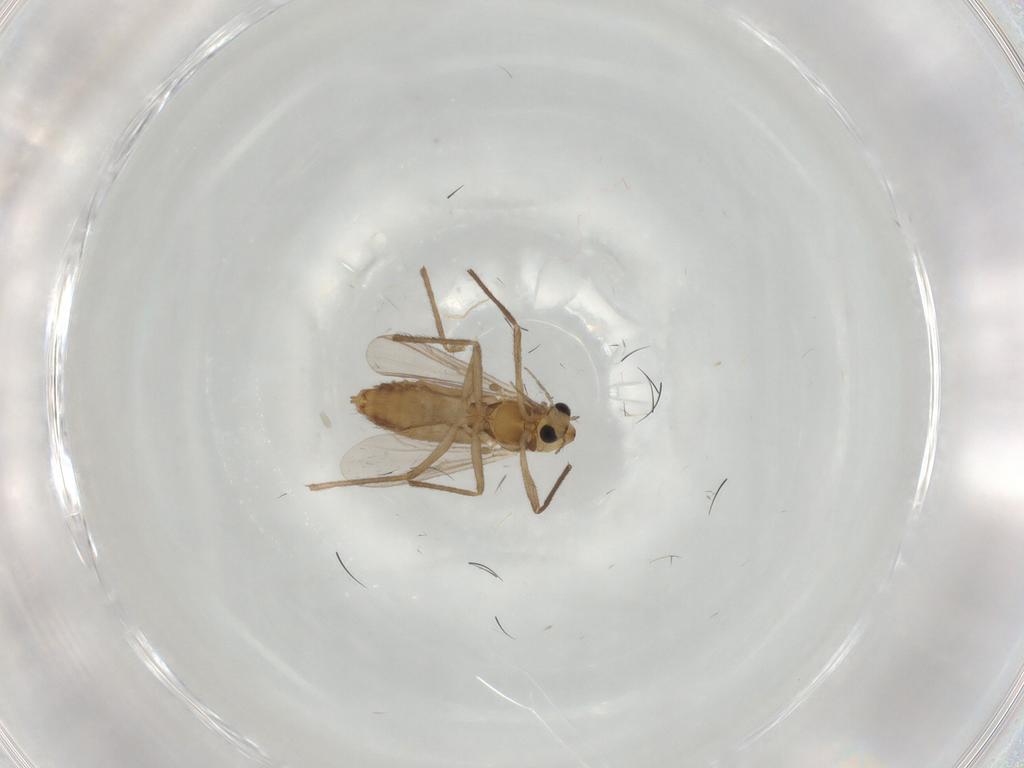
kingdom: Animalia
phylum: Arthropoda
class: Insecta
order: Diptera
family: Chironomidae
